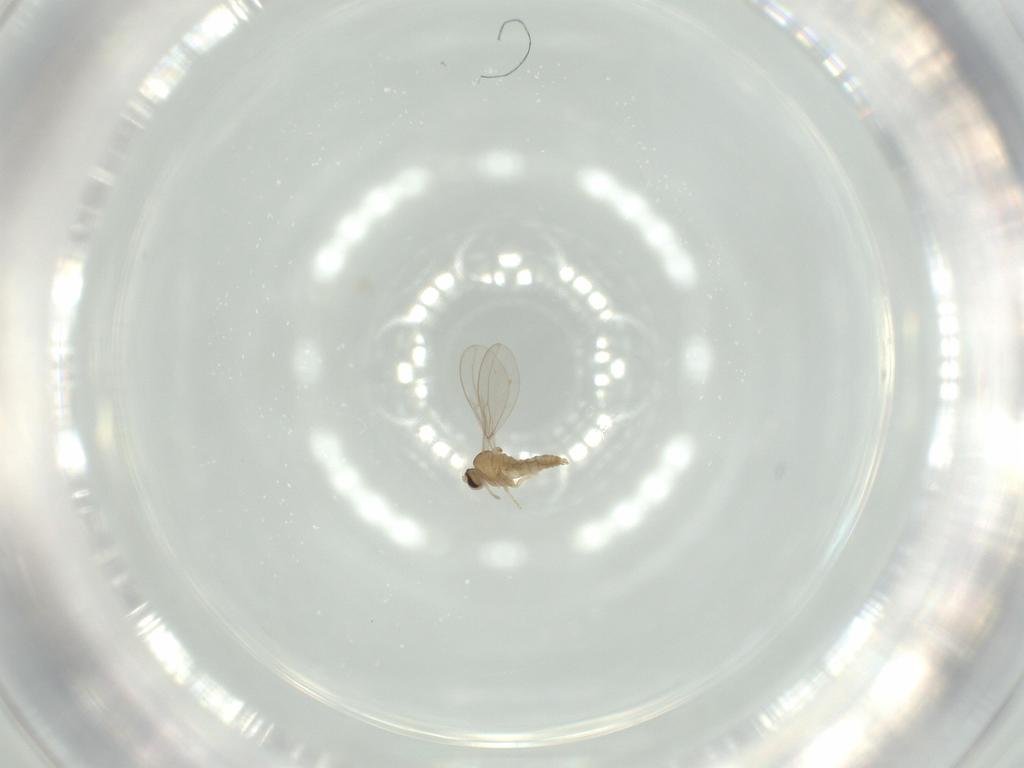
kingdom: Animalia
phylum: Arthropoda
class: Insecta
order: Diptera
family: Cecidomyiidae
